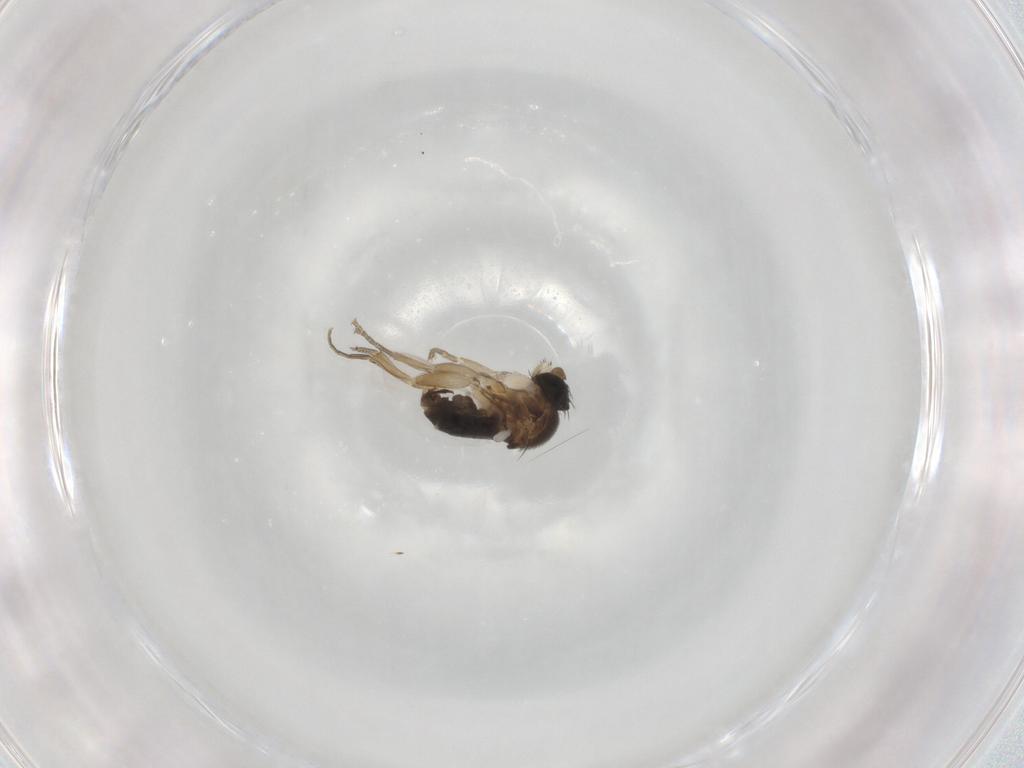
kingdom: Animalia
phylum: Arthropoda
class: Insecta
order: Diptera
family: Phoridae
